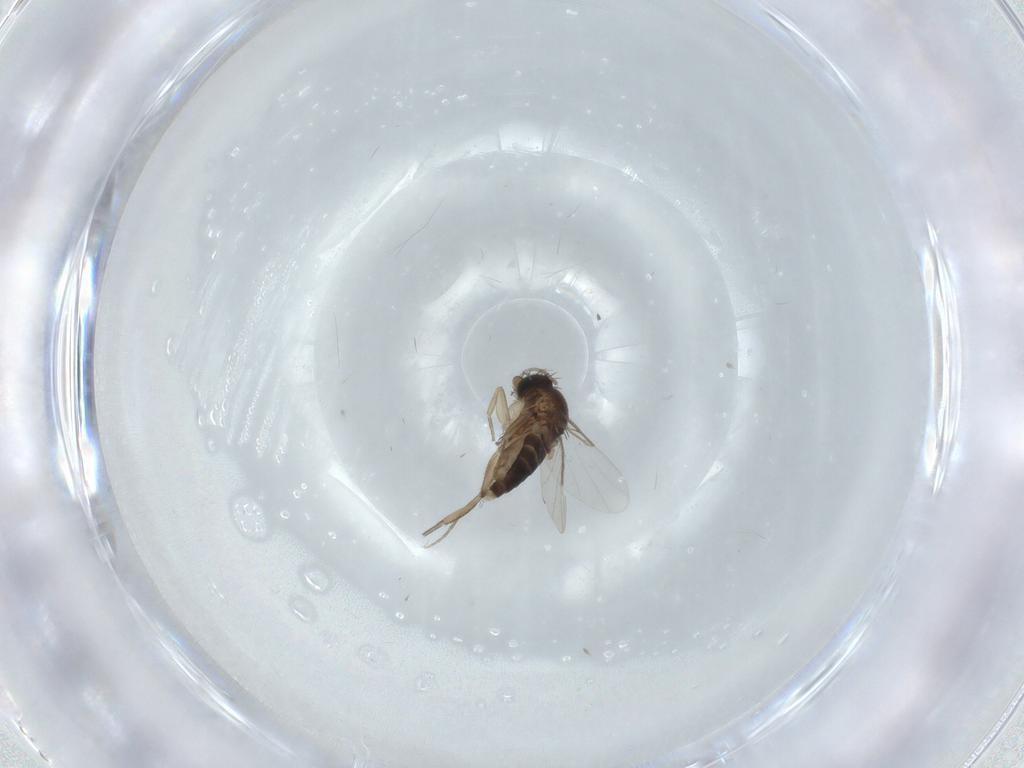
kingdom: Animalia
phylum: Arthropoda
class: Insecta
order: Diptera
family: Phoridae
